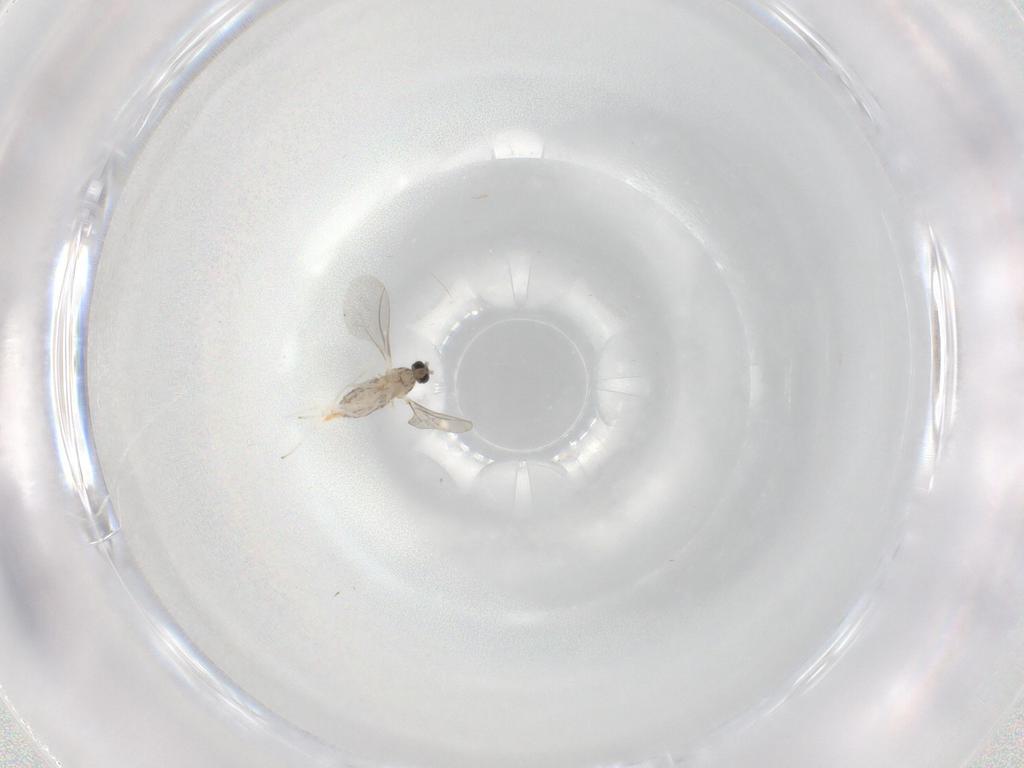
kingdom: Animalia
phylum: Arthropoda
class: Insecta
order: Diptera
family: Cecidomyiidae
